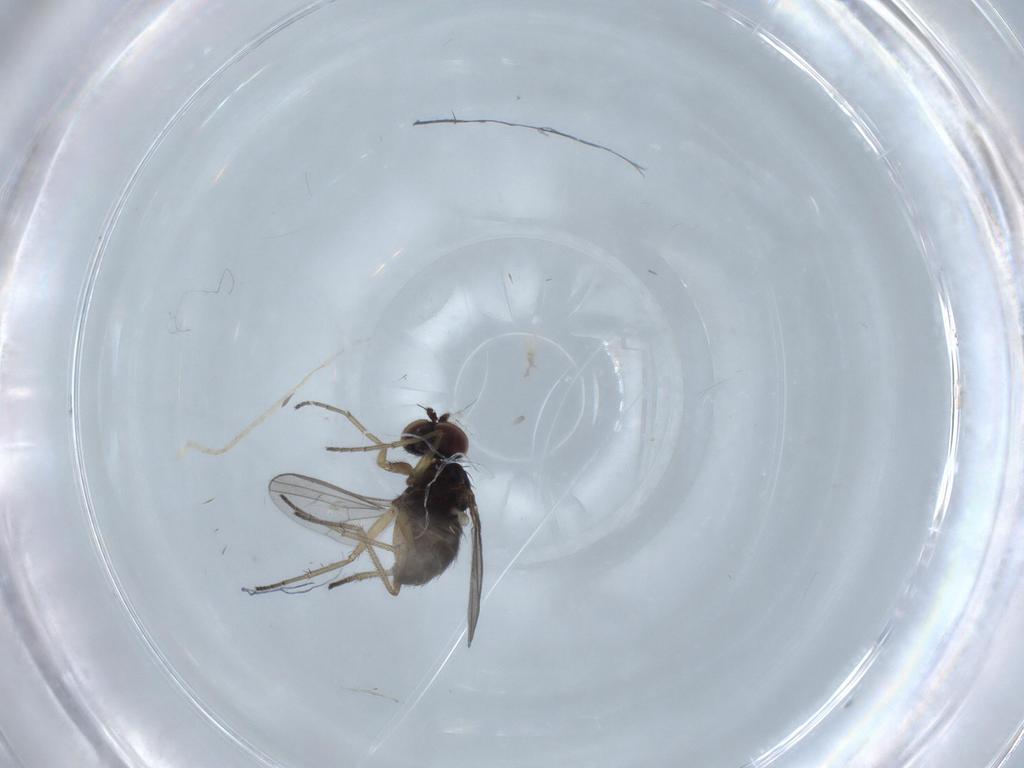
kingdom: Animalia
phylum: Arthropoda
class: Insecta
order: Diptera
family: Dolichopodidae
